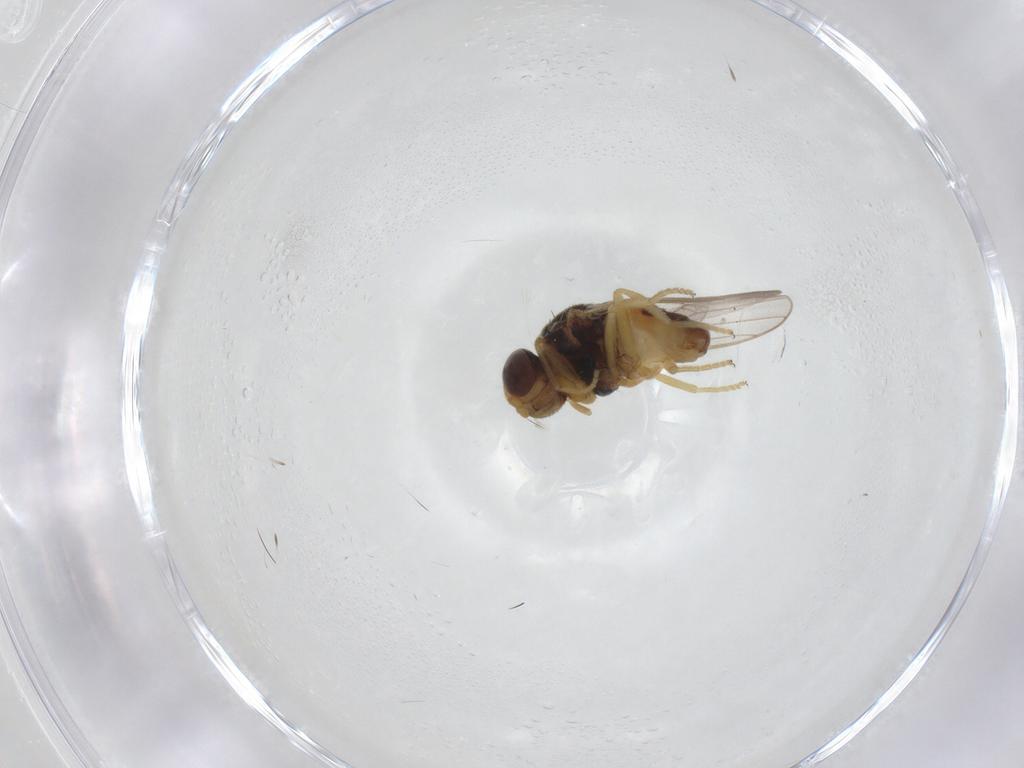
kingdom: Animalia
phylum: Arthropoda
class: Insecta
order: Diptera
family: Chloropidae
